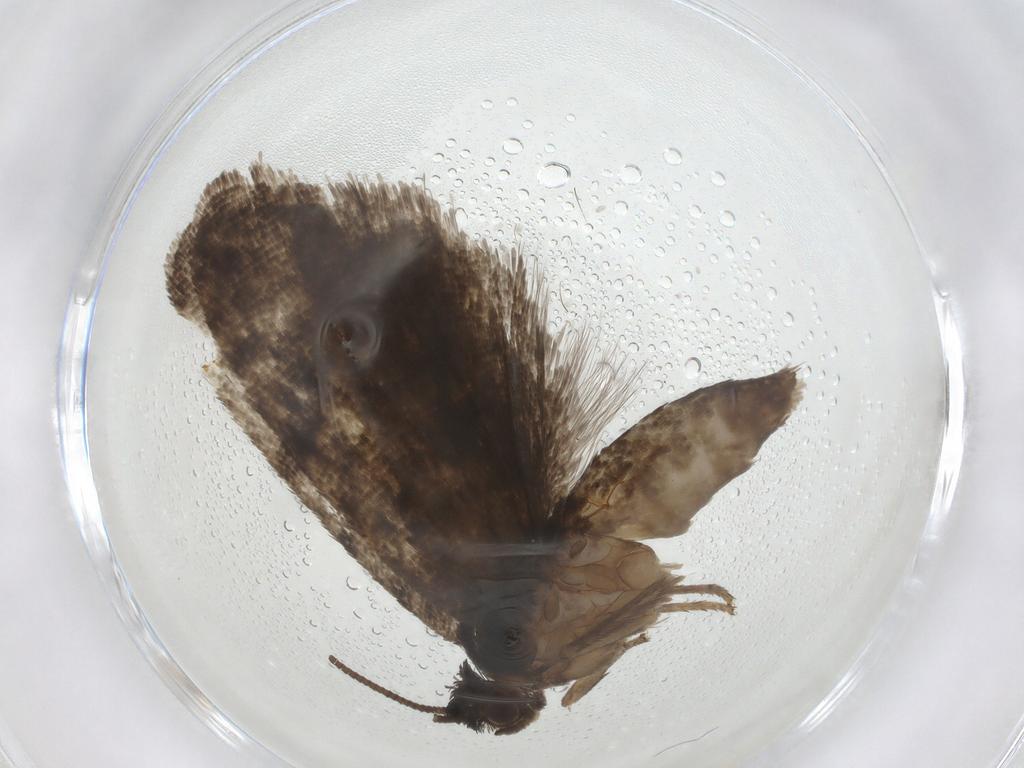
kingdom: Animalia
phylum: Arthropoda
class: Insecta
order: Lepidoptera
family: Tortricidae
